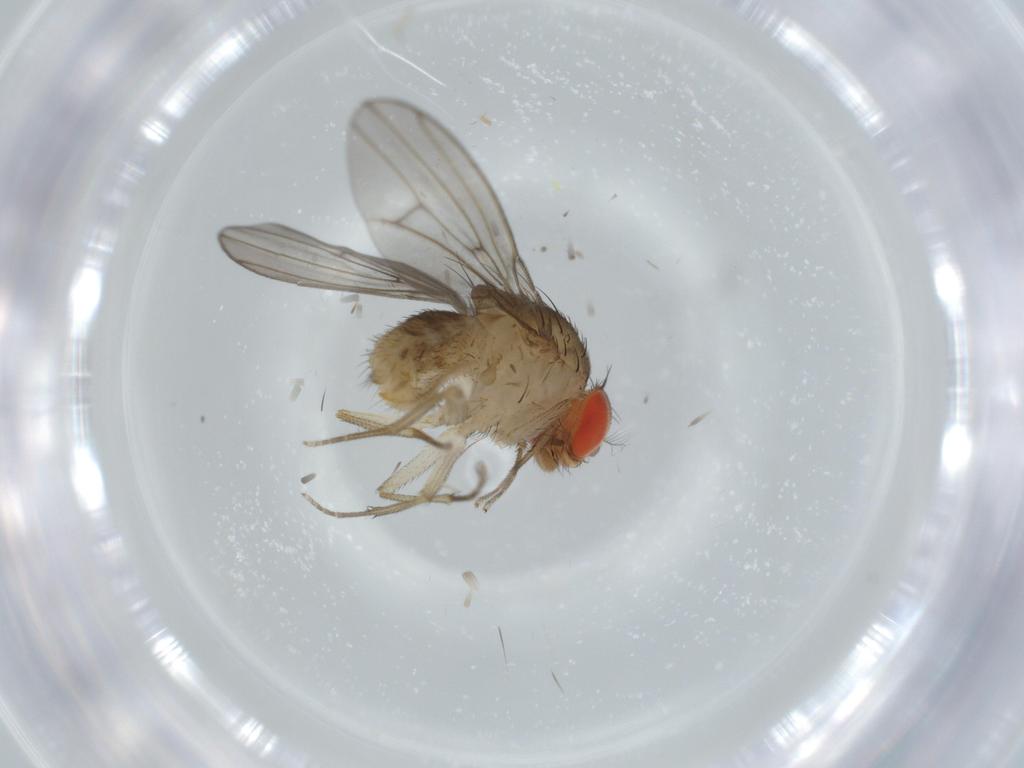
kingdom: Animalia
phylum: Arthropoda
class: Insecta
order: Diptera
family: Drosophilidae
